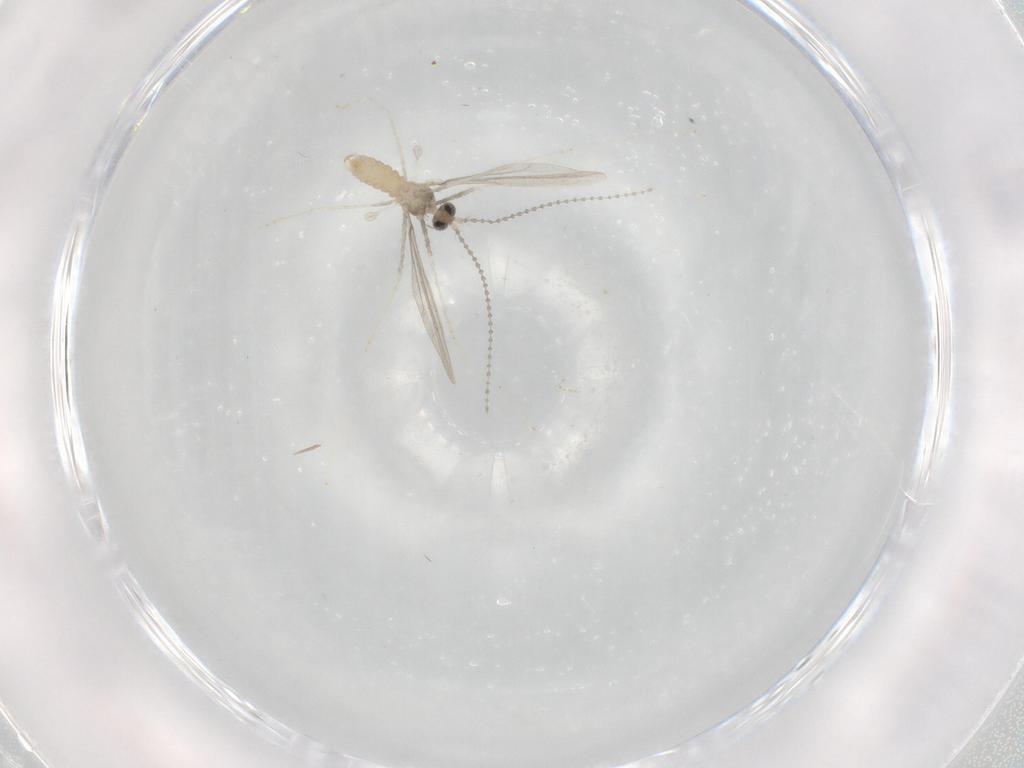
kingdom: Animalia
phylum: Arthropoda
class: Insecta
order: Diptera
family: Cecidomyiidae
